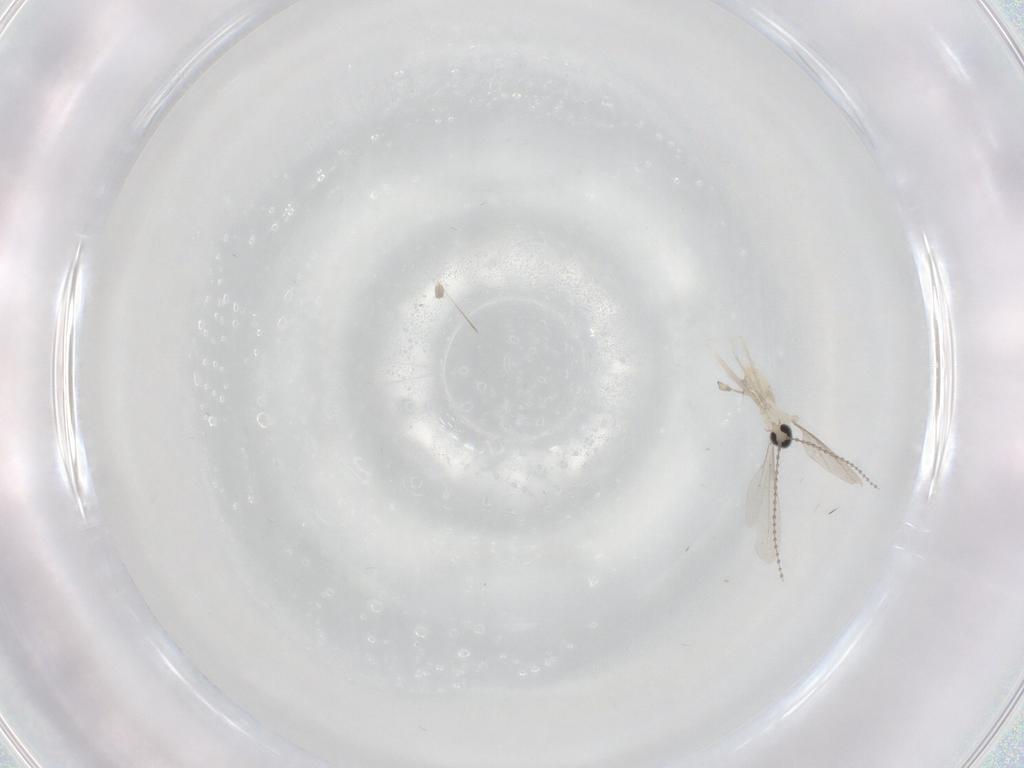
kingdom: Animalia
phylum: Arthropoda
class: Insecta
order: Diptera
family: Cecidomyiidae
